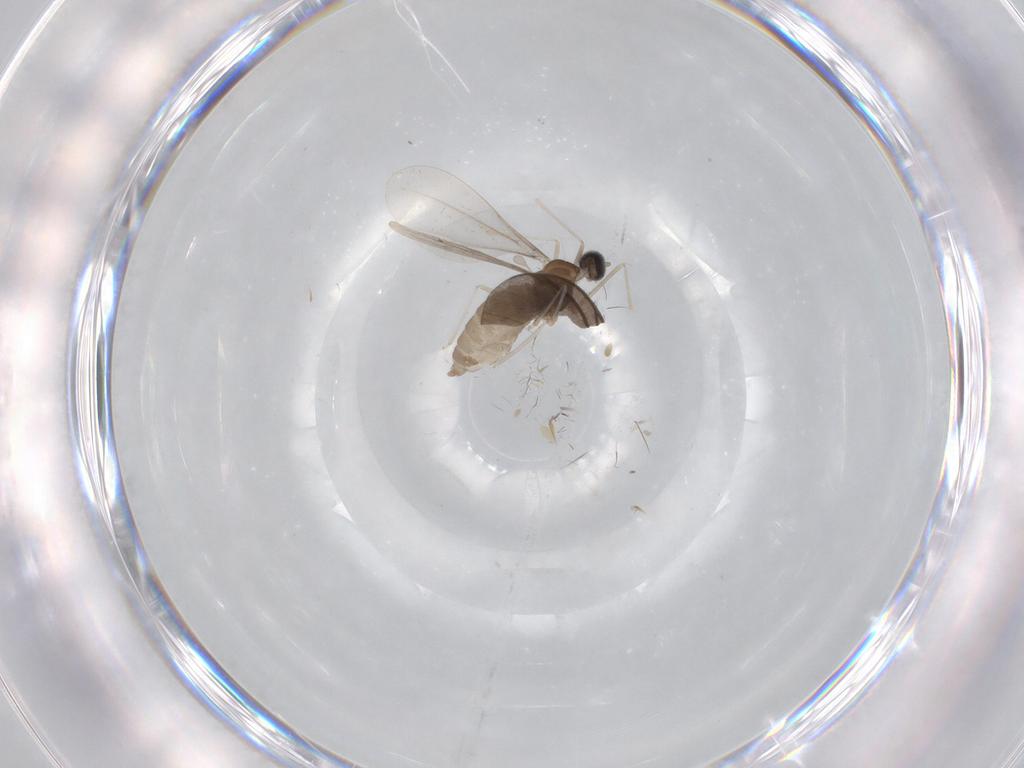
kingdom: Animalia
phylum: Arthropoda
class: Insecta
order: Diptera
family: Cecidomyiidae
